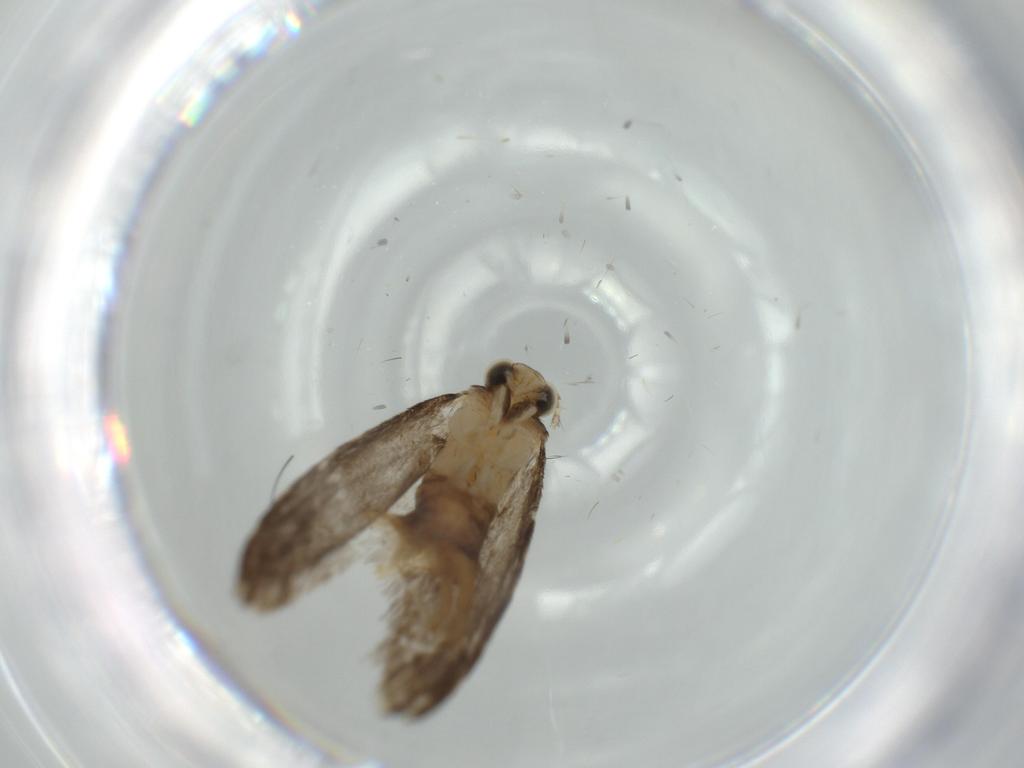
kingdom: Animalia
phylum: Arthropoda
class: Insecta
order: Lepidoptera
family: Tineidae
